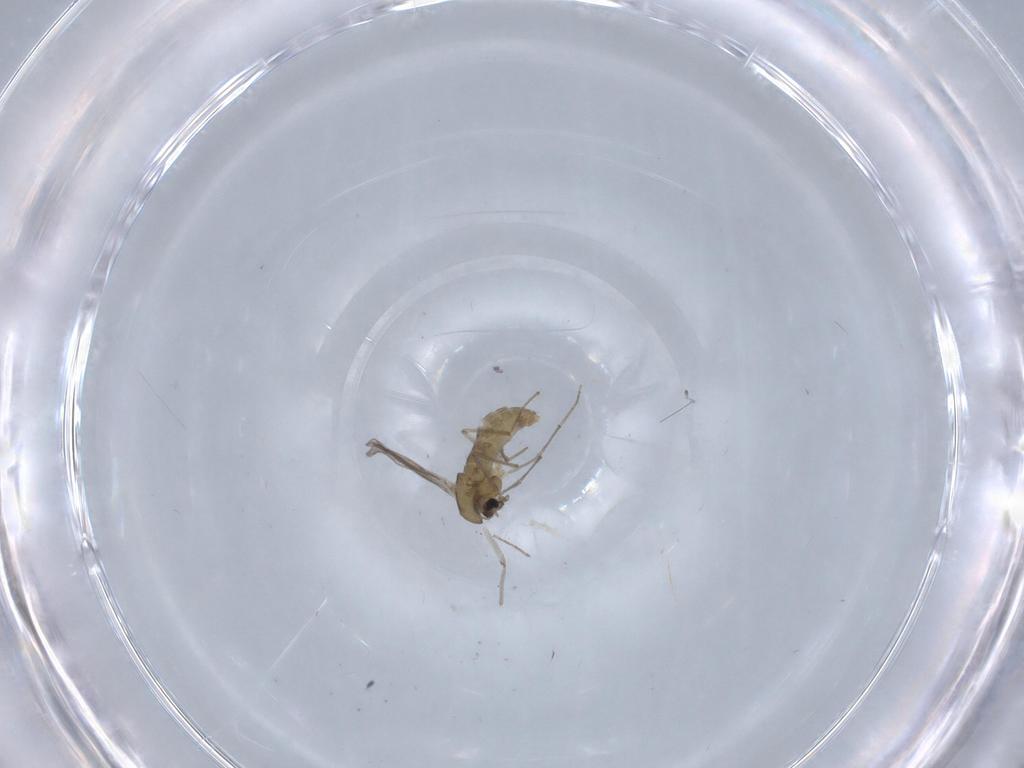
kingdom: Animalia
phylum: Arthropoda
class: Insecta
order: Diptera
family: Chironomidae
